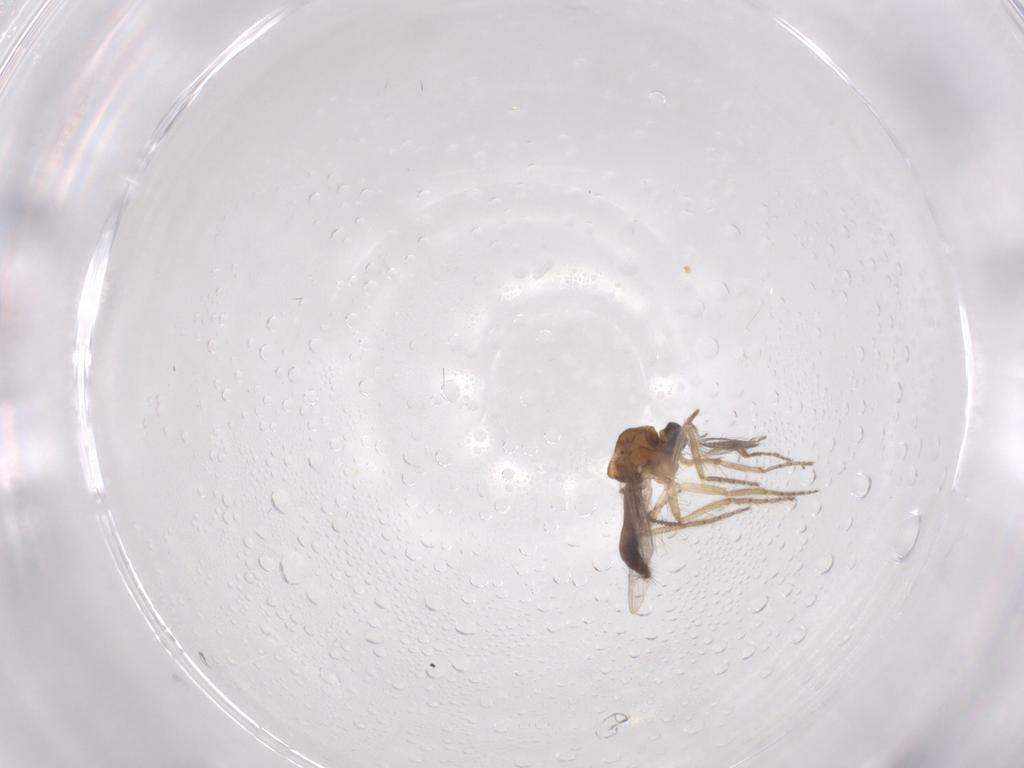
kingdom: Animalia
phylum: Arthropoda
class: Insecta
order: Diptera
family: Ceratopogonidae
